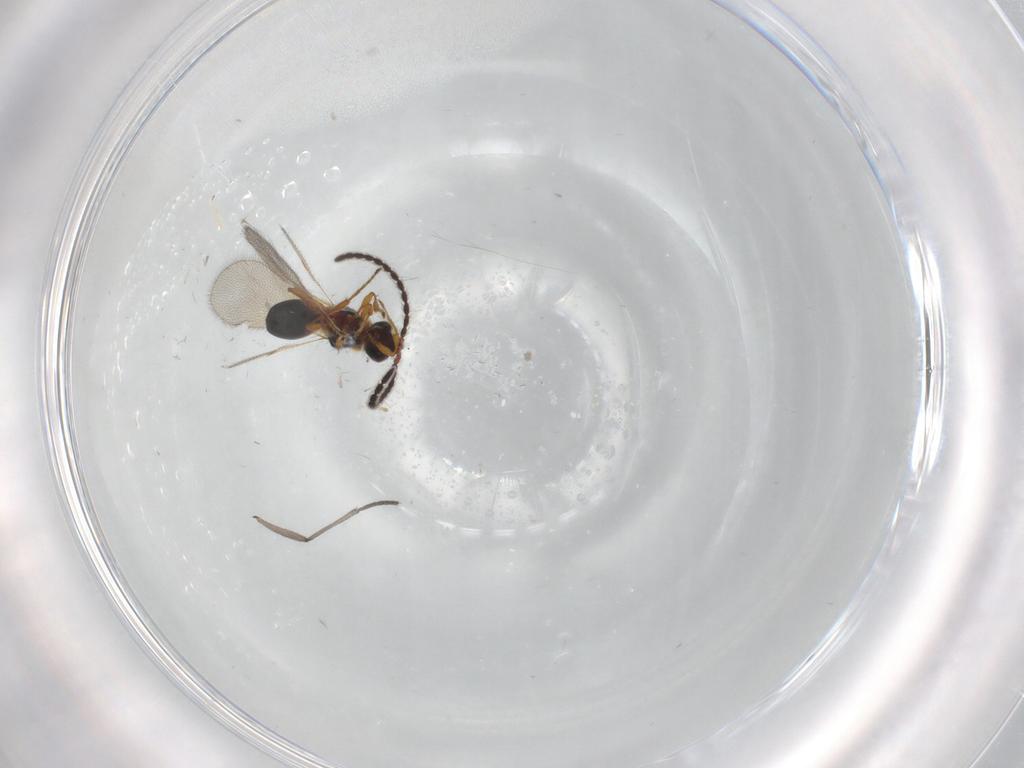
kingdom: Animalia
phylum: Arthropoda
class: Insecta
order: Hymenoptera
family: Diapriidae
